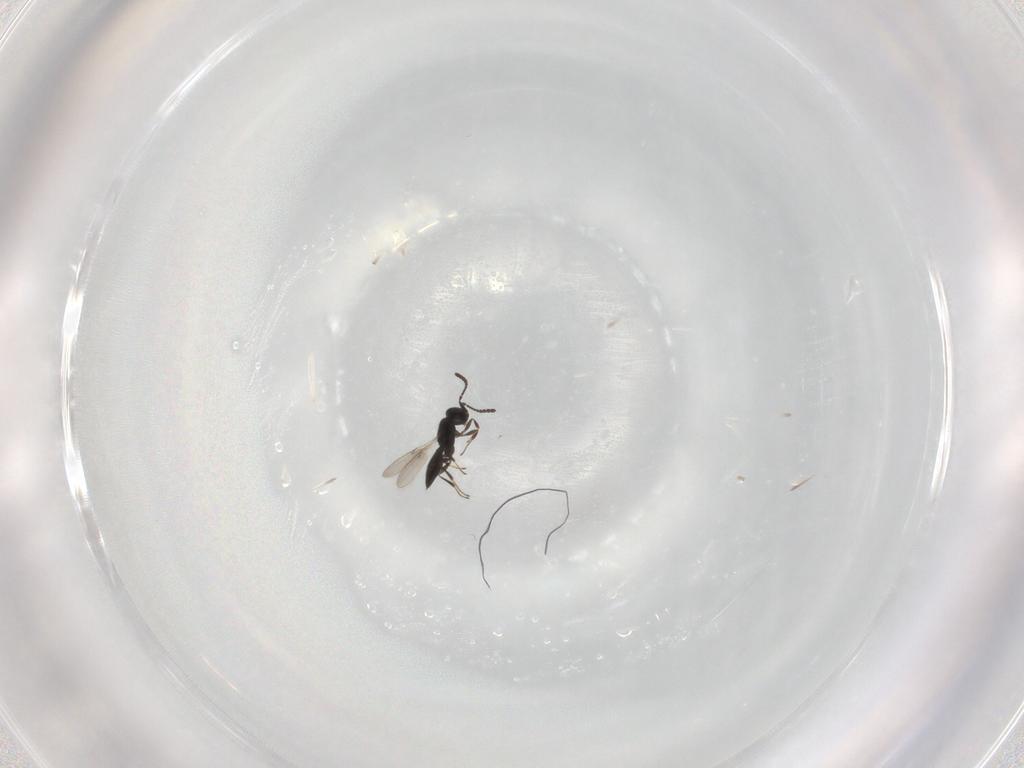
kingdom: Animalia
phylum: Arthropoda
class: Insecta
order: Hymenoptera
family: Scelionidae
